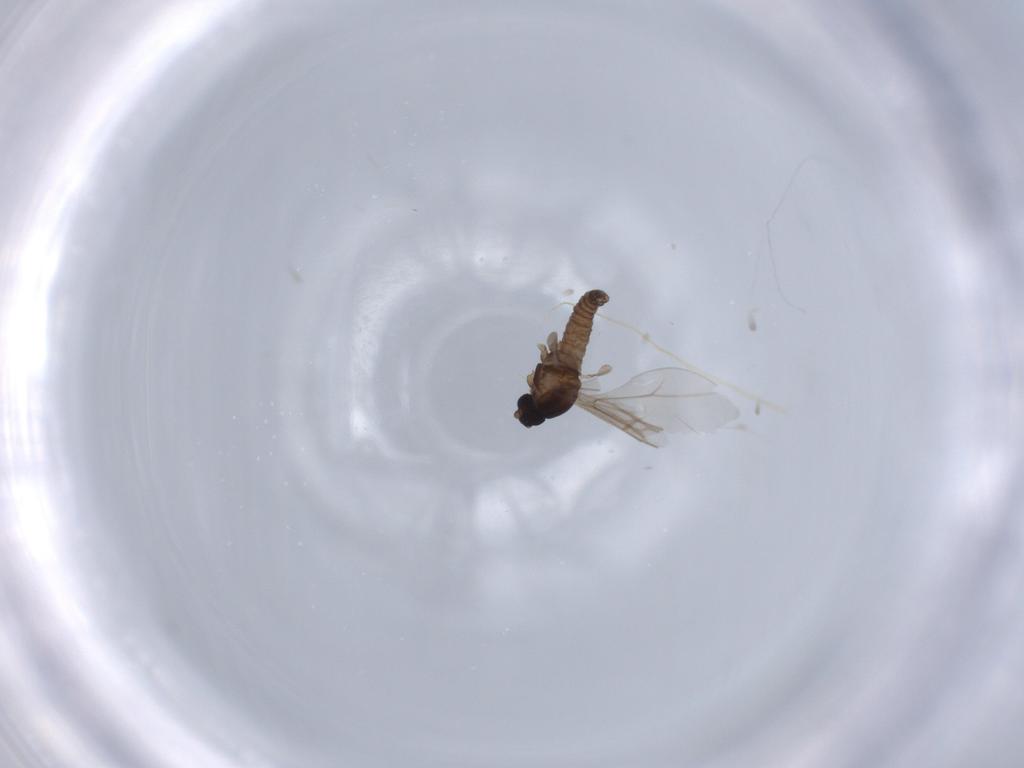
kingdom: Animalia
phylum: Arthropoda
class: Insecta
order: Diptera
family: Cecidomyiidae
